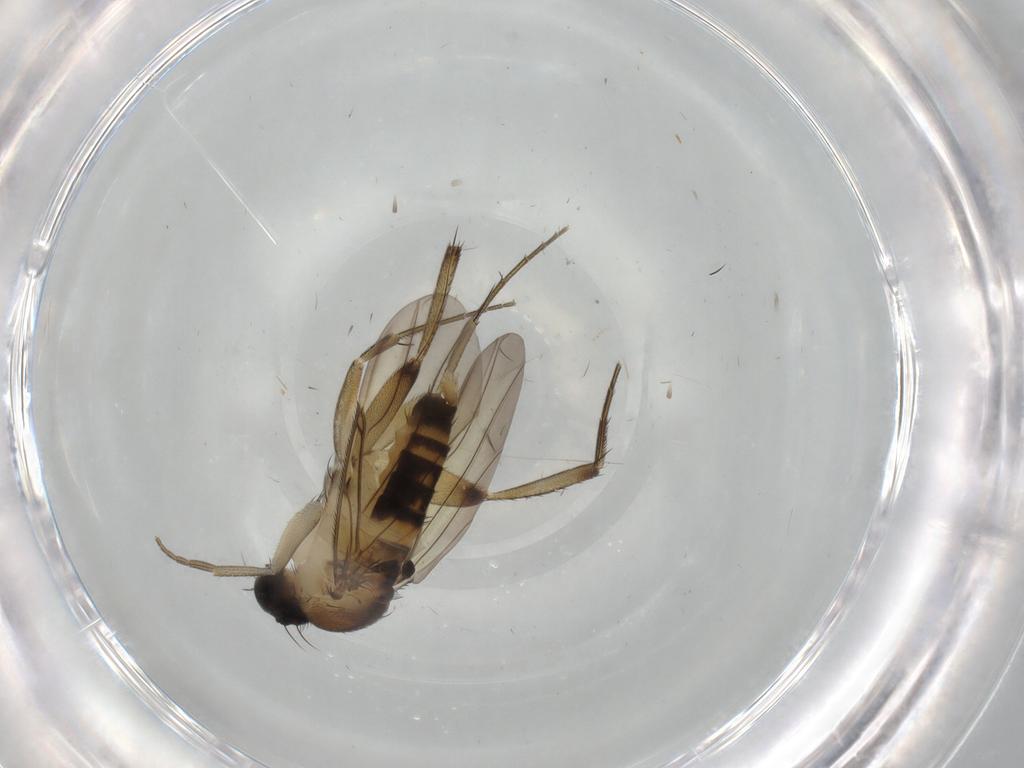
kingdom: Animalia
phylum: Arthropoda
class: Insecta
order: Diptera
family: Phoridae
